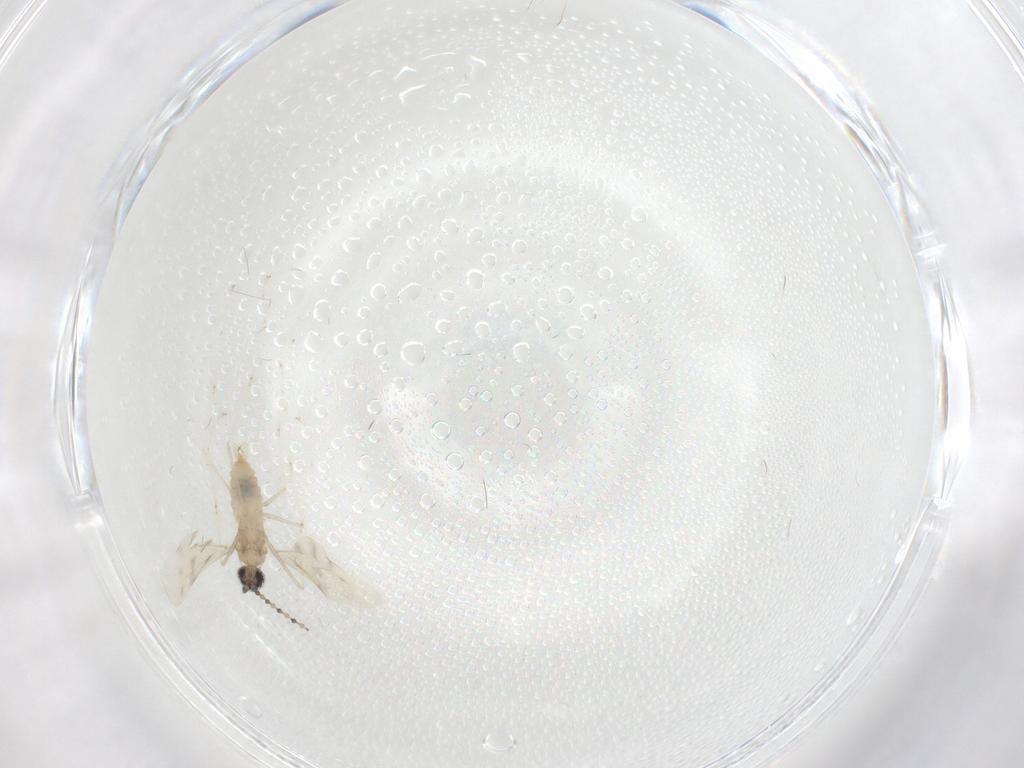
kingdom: Animalia
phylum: Arthropoda
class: Insecta
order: Diptera
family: Cecidomyiidae
